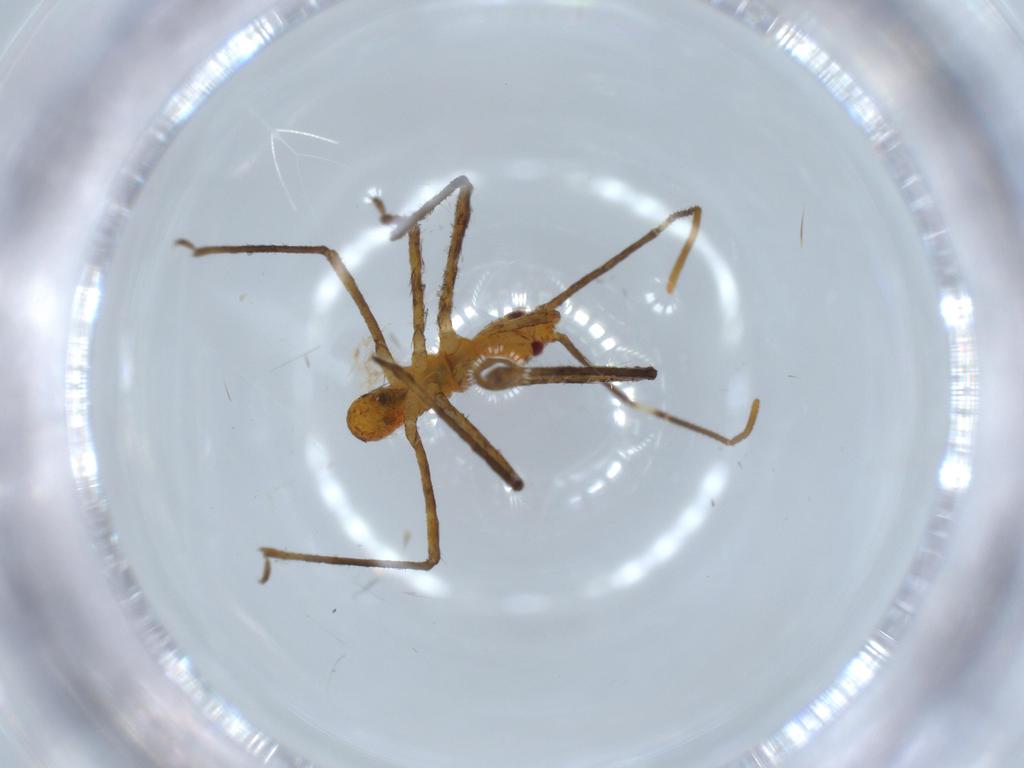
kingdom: Animalia
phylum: Arthropoda
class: Insecta
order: Hemiptera
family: Reduviidae
